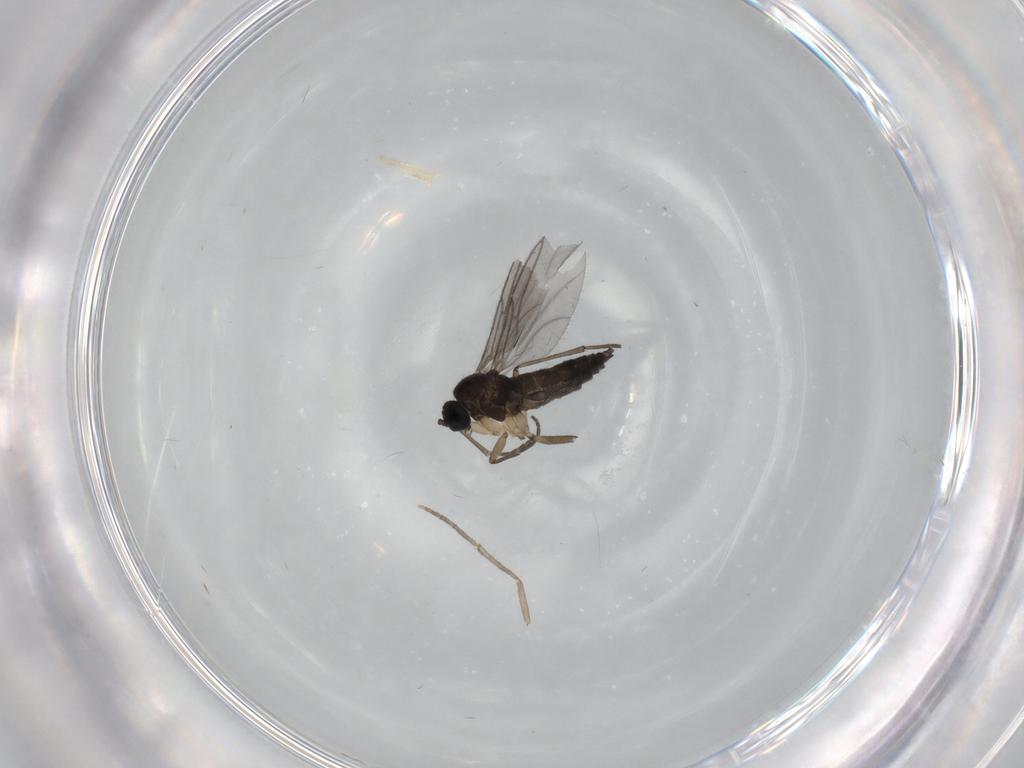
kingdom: Animalia
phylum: Arthropoda
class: Insecta
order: Diptera
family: Sciaridae
